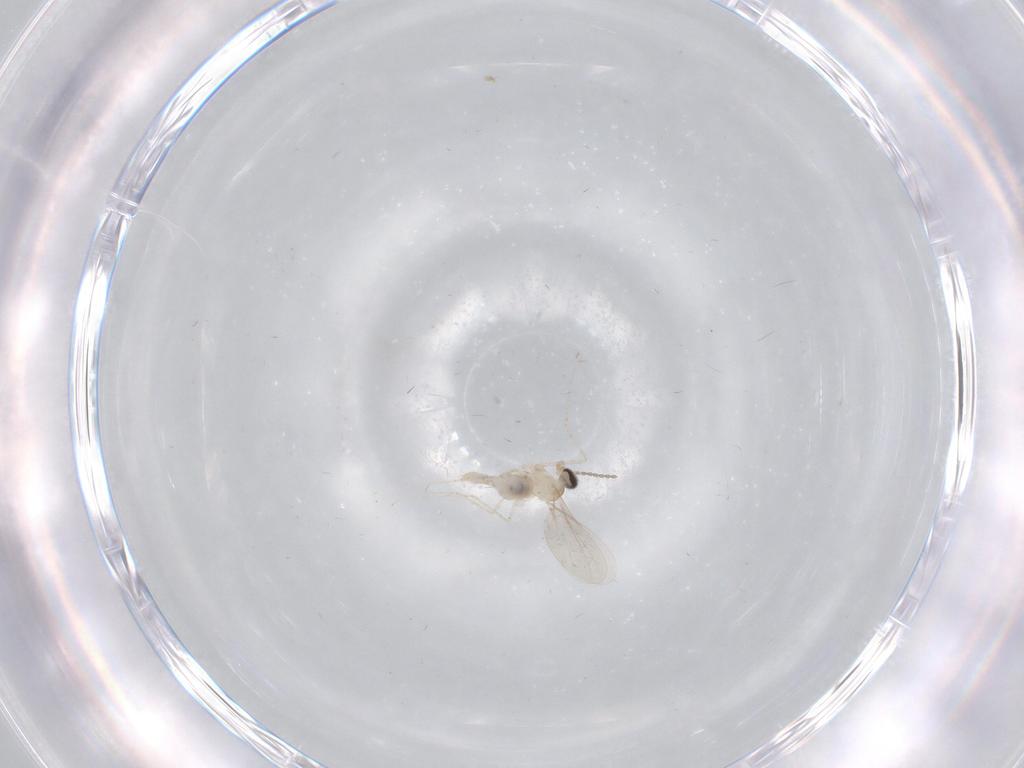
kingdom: Animalia
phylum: Arthropoda
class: Insecta
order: Diptera
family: Cecidomyiidae
